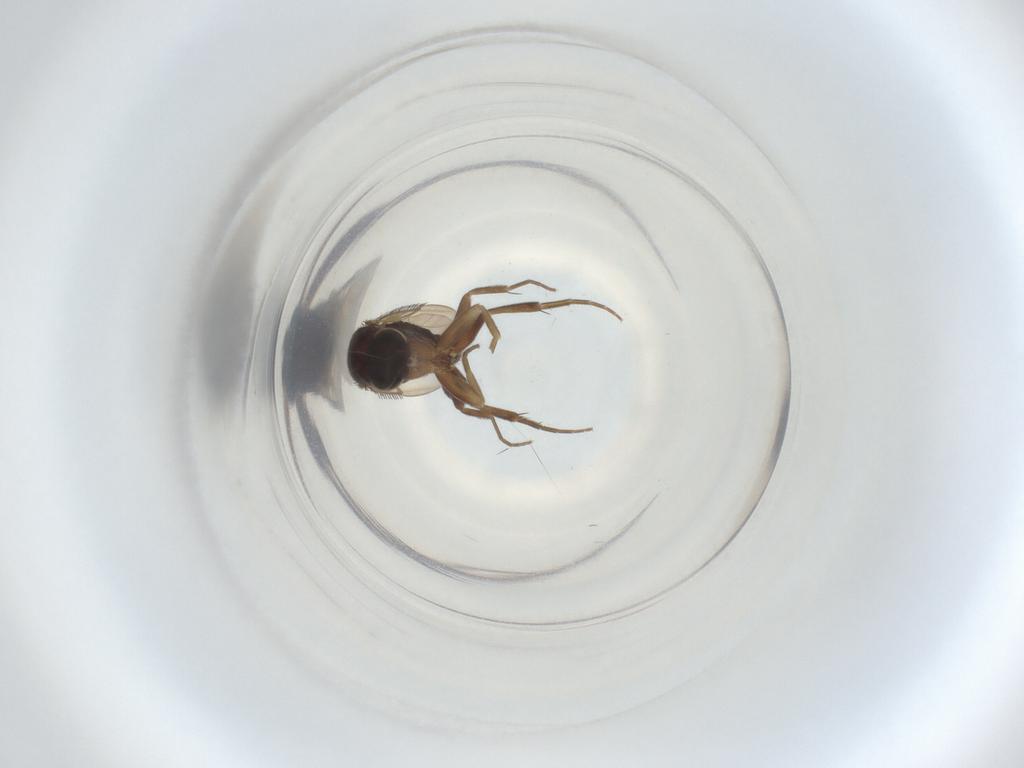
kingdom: Animalia
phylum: Arthropoda
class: Insecta
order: Diptera
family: Phoridae
